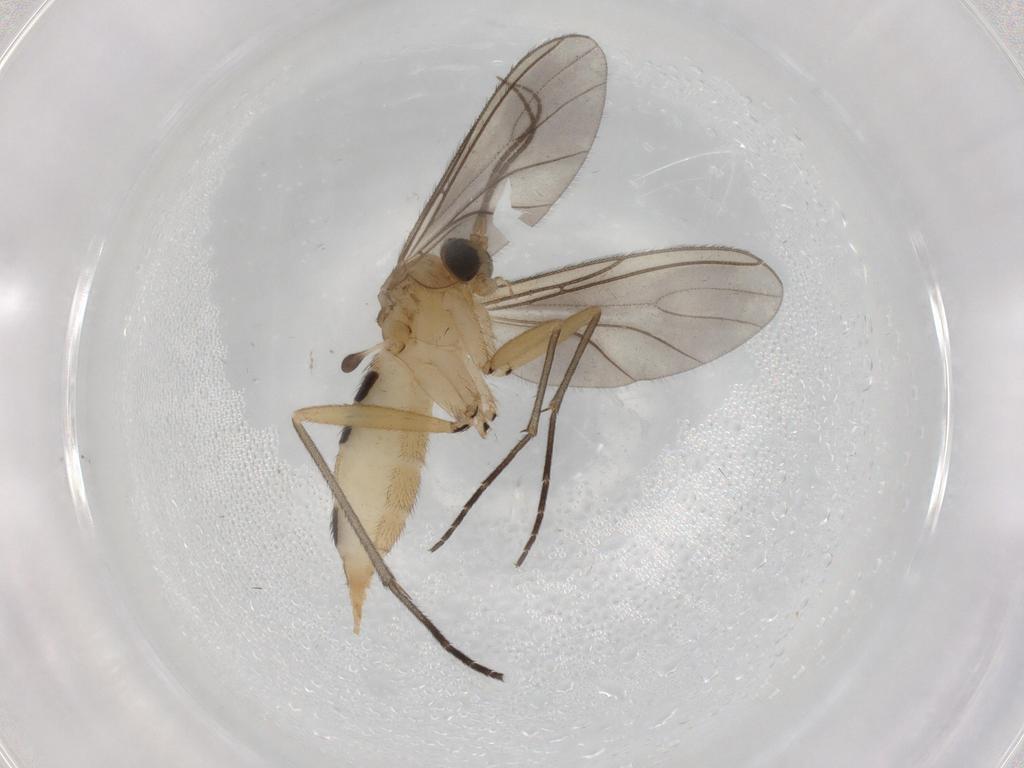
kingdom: Animalia
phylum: Arthropoda
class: Insecta
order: Diptera
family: Sciaridae
